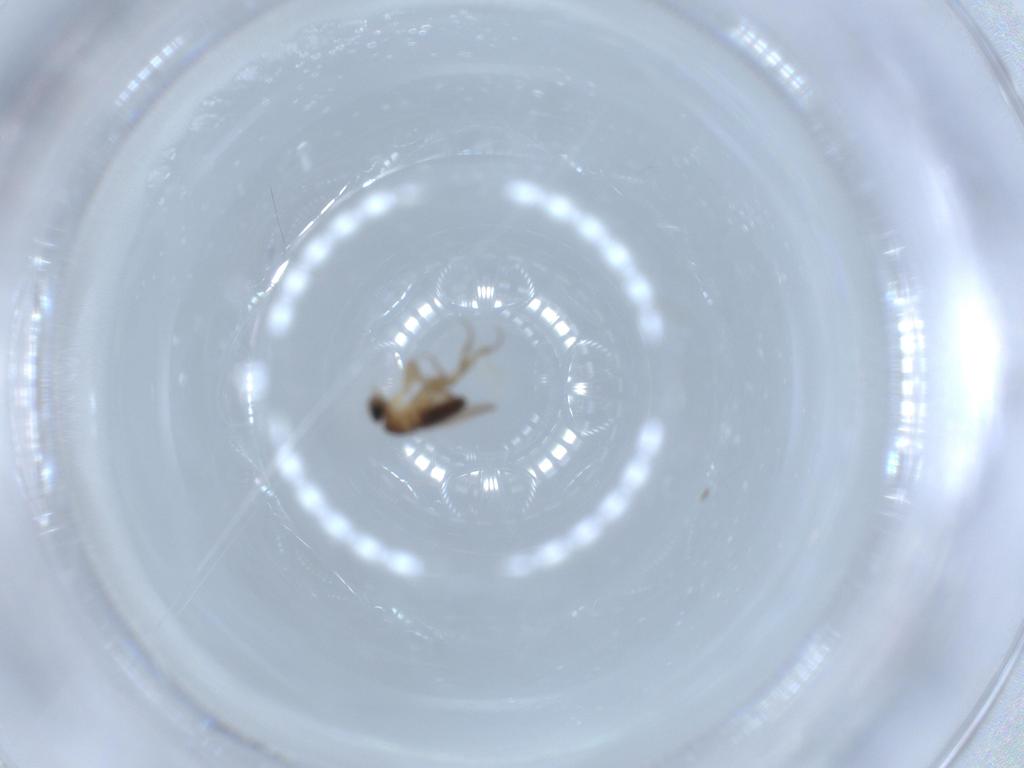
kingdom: Animalia
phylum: Arthropoda
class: Insecta
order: Diptera
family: Phoridae
